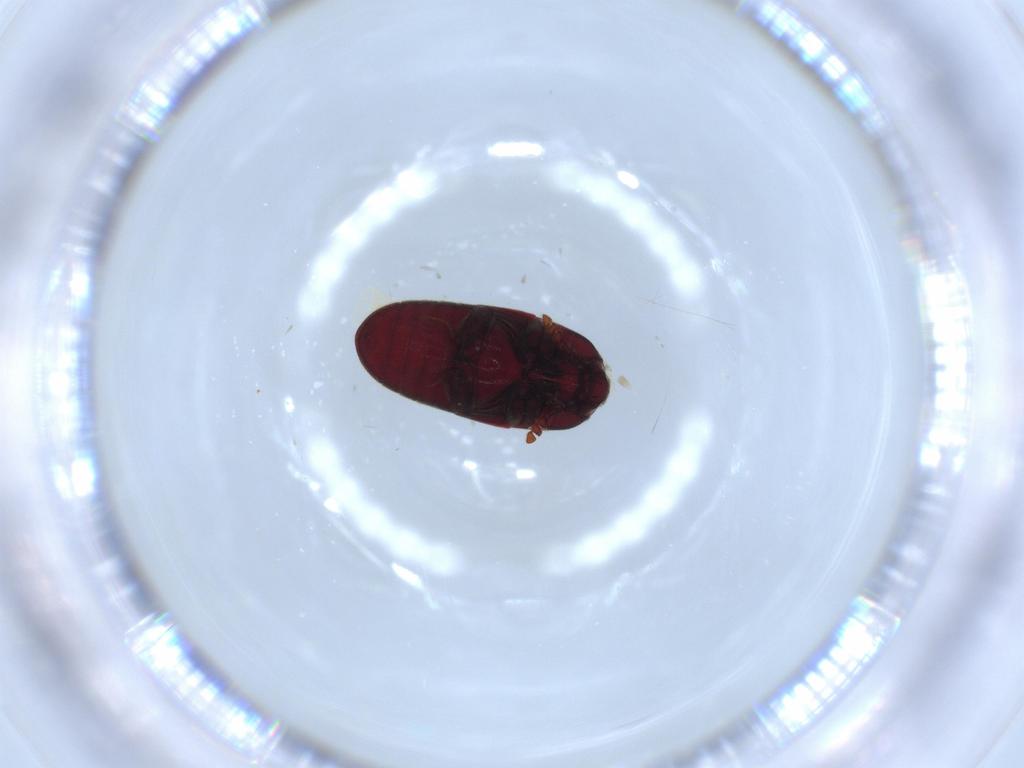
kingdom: Animalia
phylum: Arthropoda
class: Insecta
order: Coleoptera
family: Throscidae
